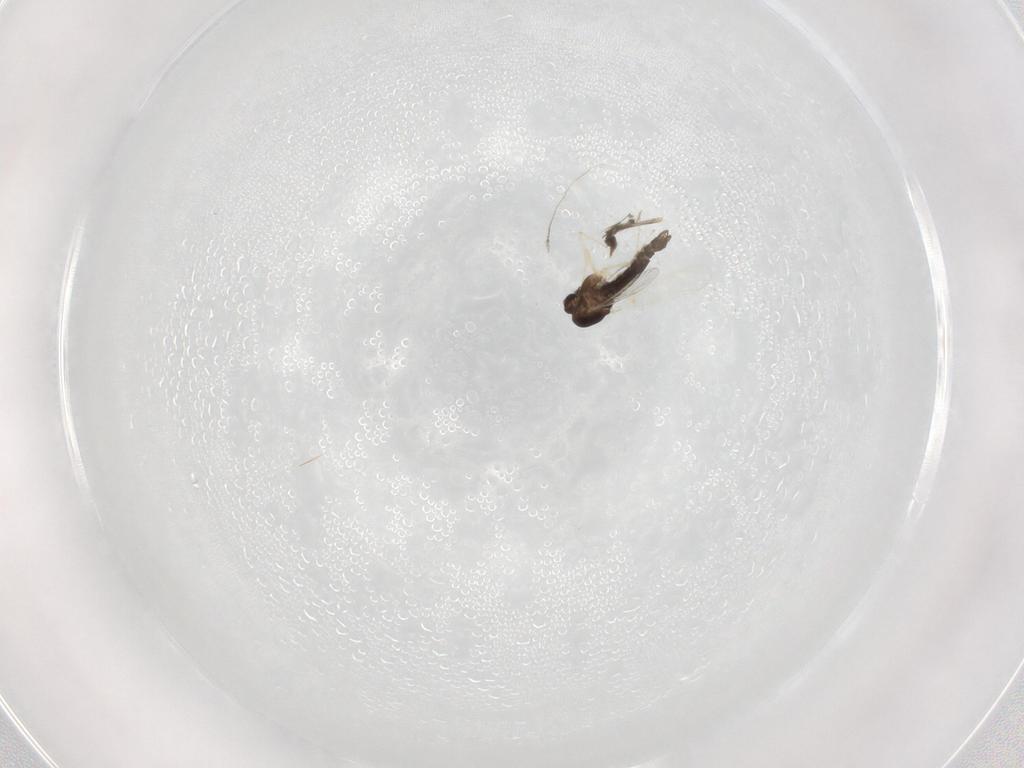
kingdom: Animalia
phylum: Arthropoda
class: Insecta
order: Diptera
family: Chironomidae
